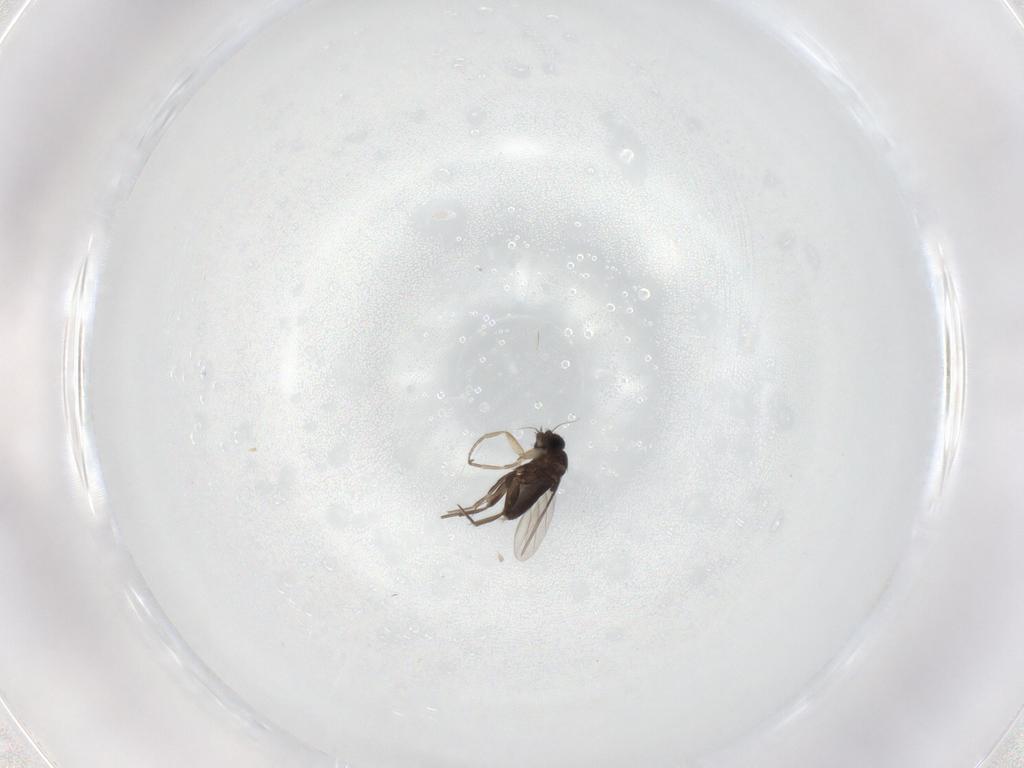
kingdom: Animalia
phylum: Arthropoda
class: Insecta
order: Diptera
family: Phoridae
